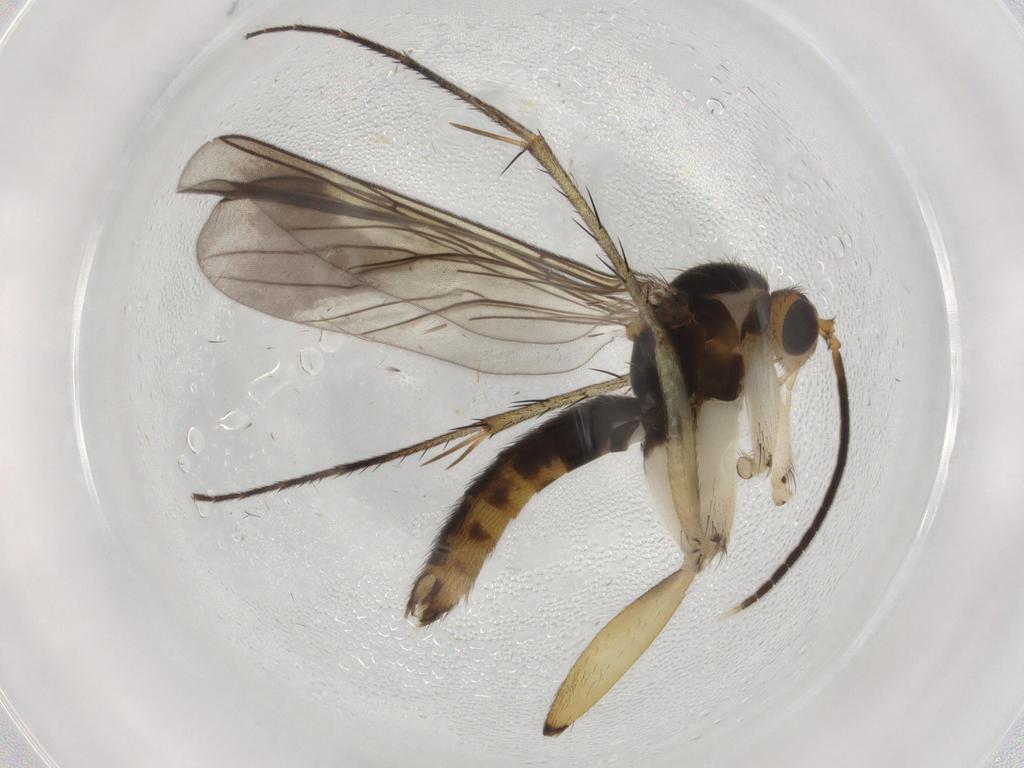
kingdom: Animalia
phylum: Arthropoda
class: Insecta
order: Diptera
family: Mycetophilidae
